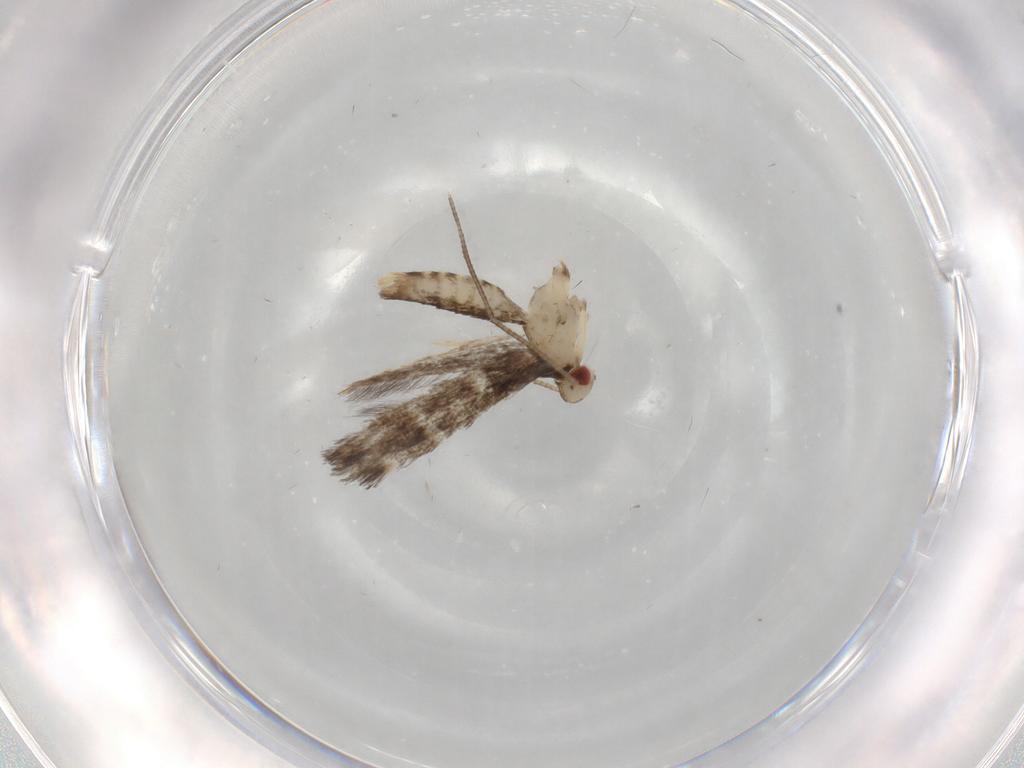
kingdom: Animalia
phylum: Arthropoda
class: Insecta
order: Lepidoptera
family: Gracillariidae
